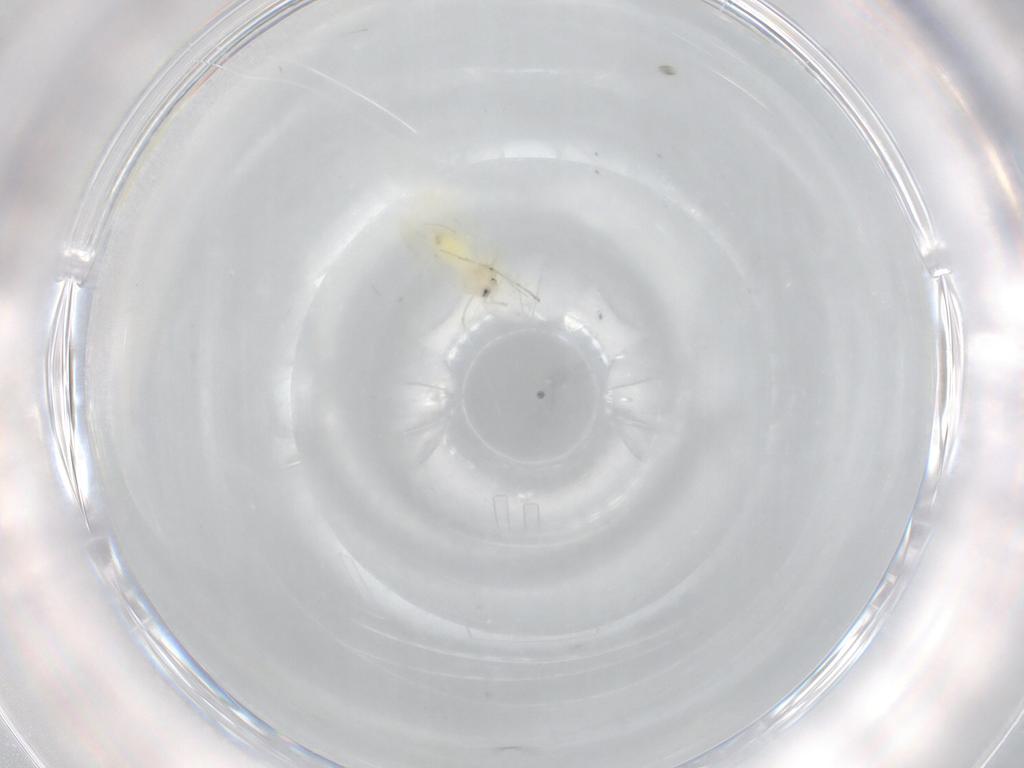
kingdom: Animalia
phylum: Arthropoda
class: Insecta
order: Hemiptera
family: Aleyrodidae
